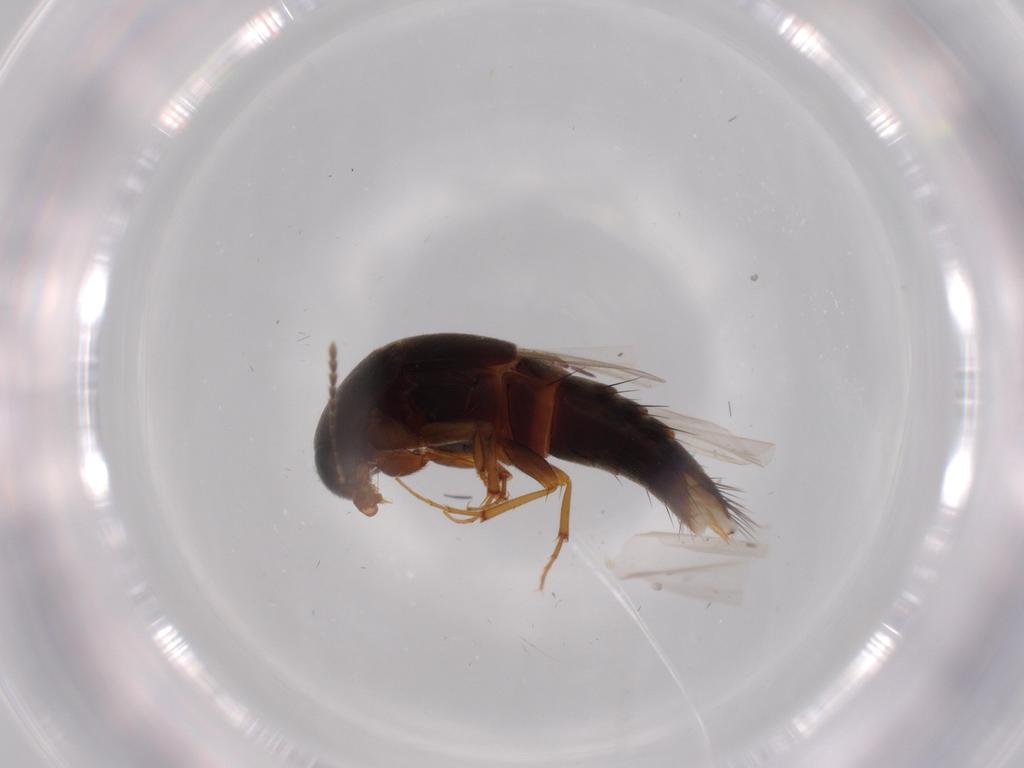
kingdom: Animalia
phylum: Arthropoda
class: Insecta
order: Coleoptera
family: Staphylinidae
